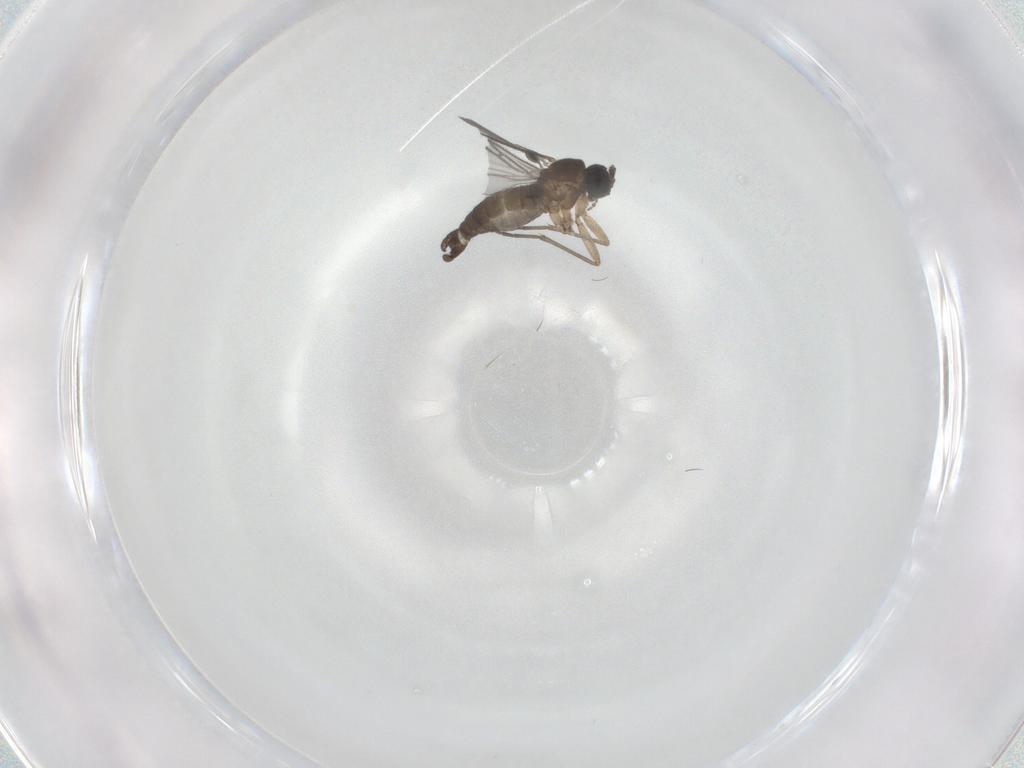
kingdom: Animalia
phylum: Arthropoda
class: Insecta
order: Diptera
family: Sciaridae
